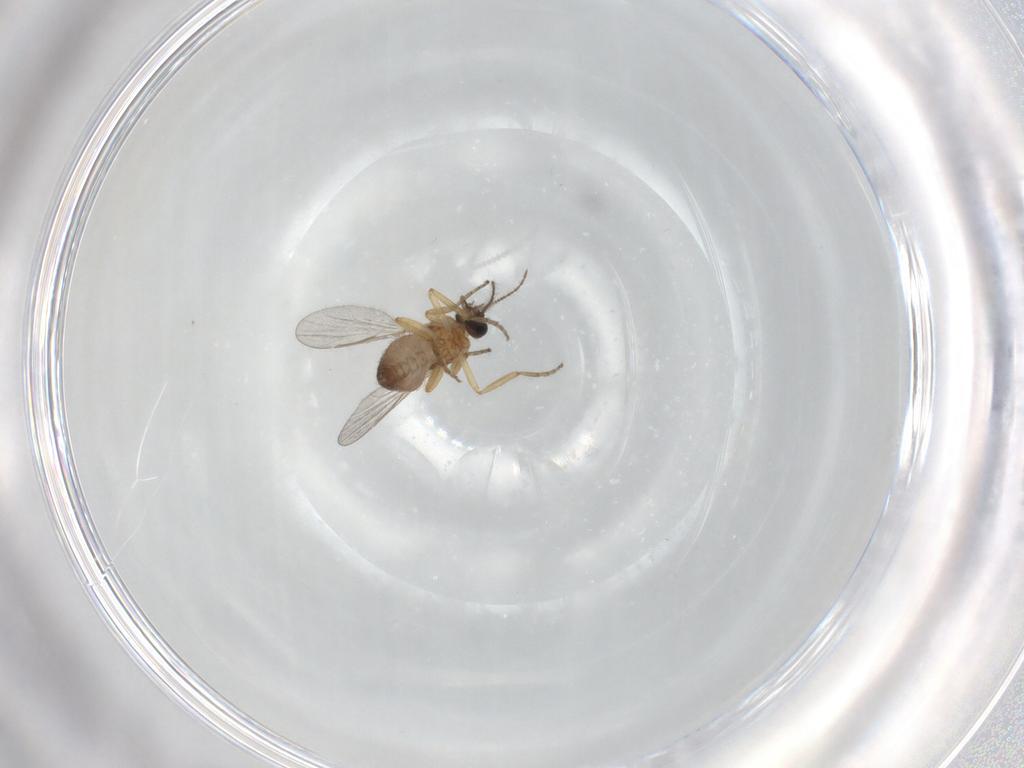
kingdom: Animalia
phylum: Arthropoda
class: Insecta
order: Diptera
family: Ceratopogonidae
